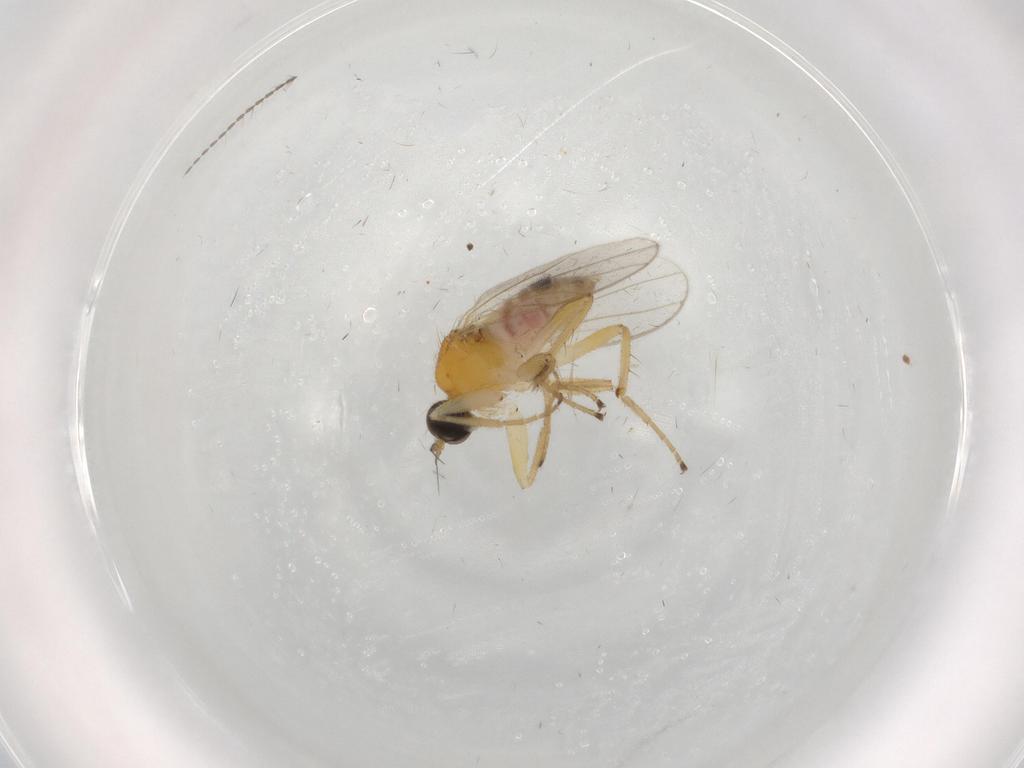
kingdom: Animalia
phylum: Arthropoda
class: Insecta
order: Diptera
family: Hybotidae
